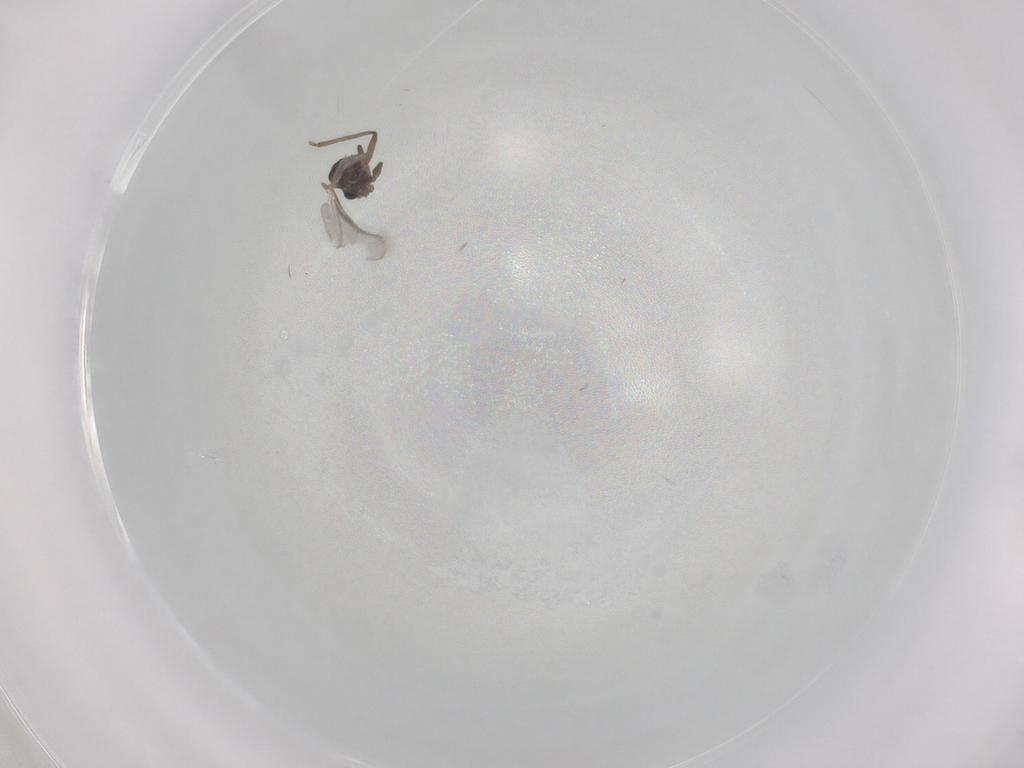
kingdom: Animalia
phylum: Arthropoda
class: Insecta
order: Diptera
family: Cecidomyiidae
